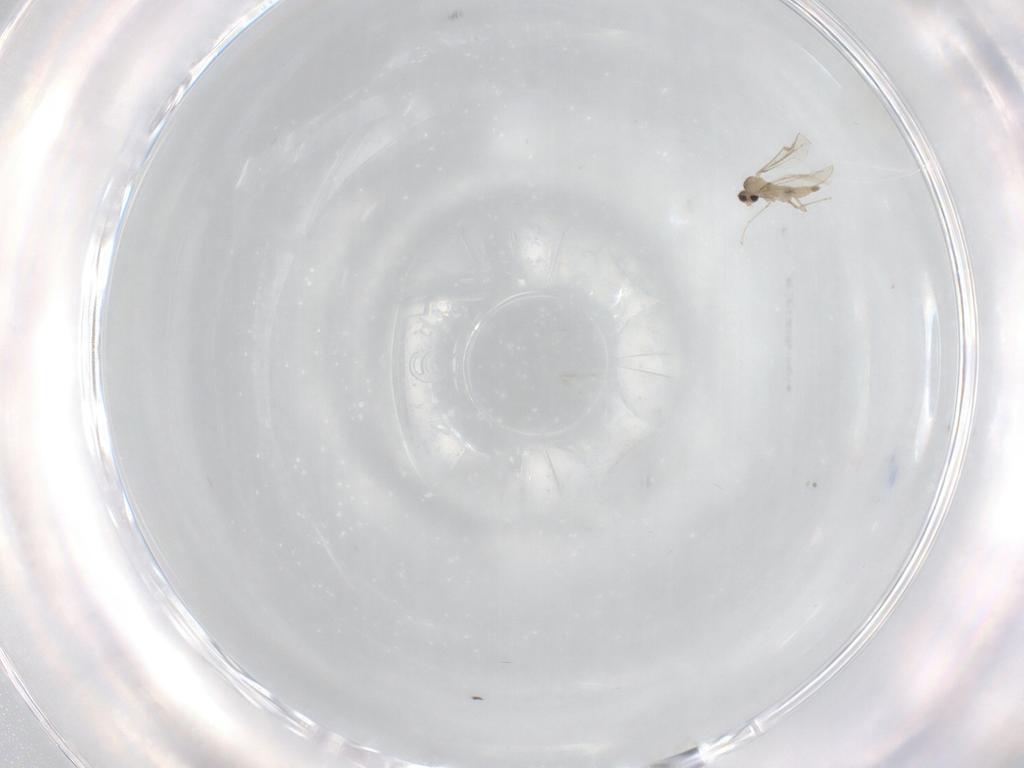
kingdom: Animalia
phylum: Arthropoda
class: Insecta
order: Diptera
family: Cecidomyiidae
